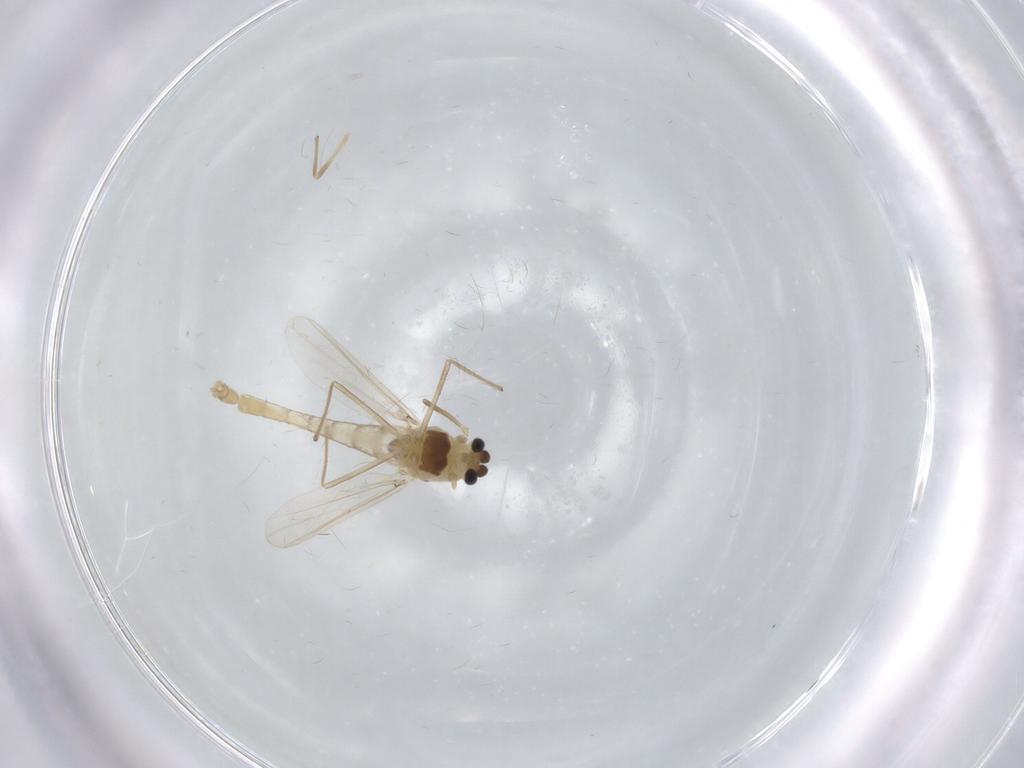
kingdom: Animalia
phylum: Arthropoda
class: Insecta
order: Diptera
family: Chironomidae
